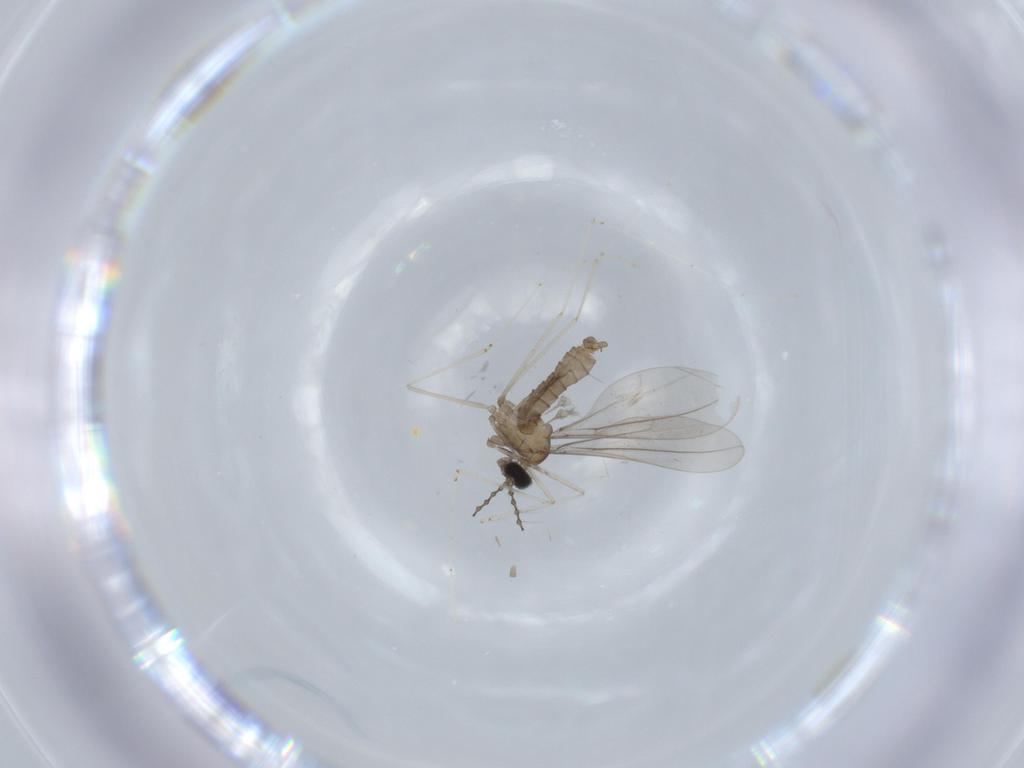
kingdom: Animalia
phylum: Arthropoda
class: Insecta
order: Diptera
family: Cecidomyiidae
